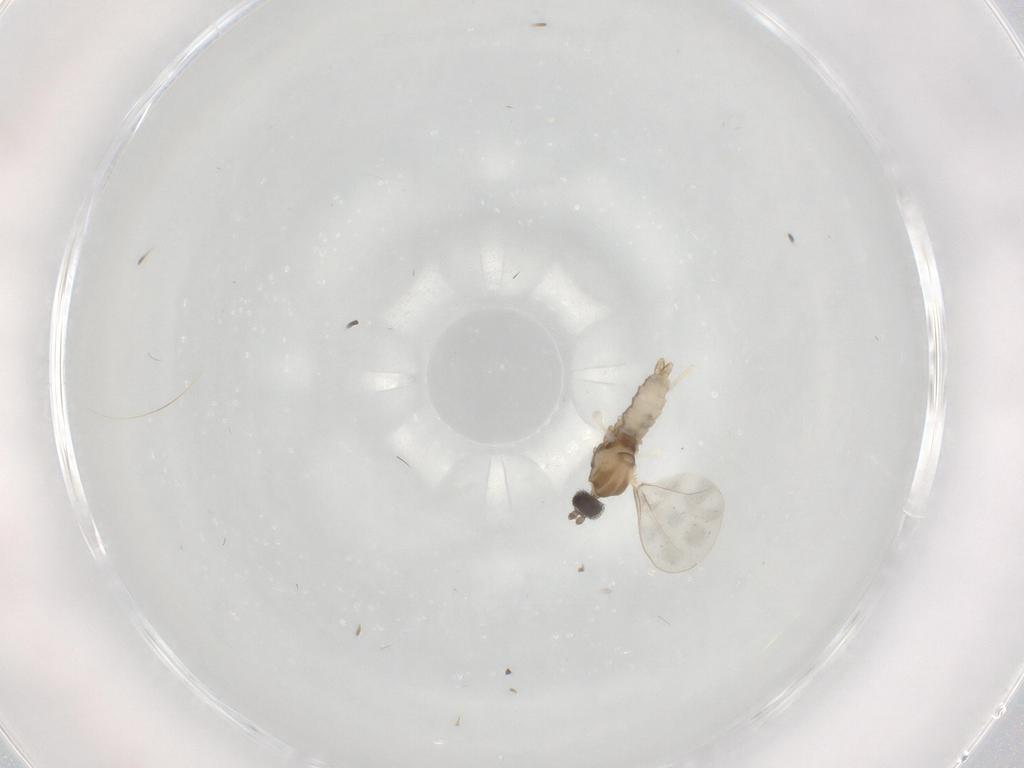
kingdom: Animalia
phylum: Arthropoda
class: Insecta
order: Diptera
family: Cecidomyiidae
